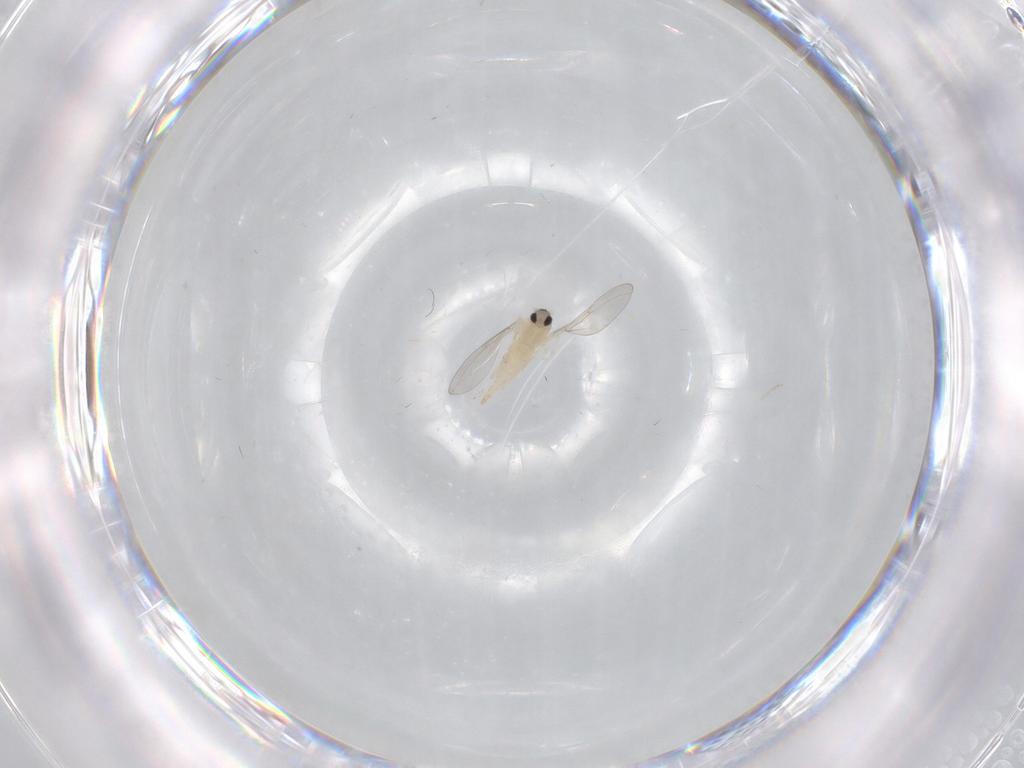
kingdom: Animalia
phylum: Arthropoda
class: Insecta
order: Diptera
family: Cecidomyiidae
